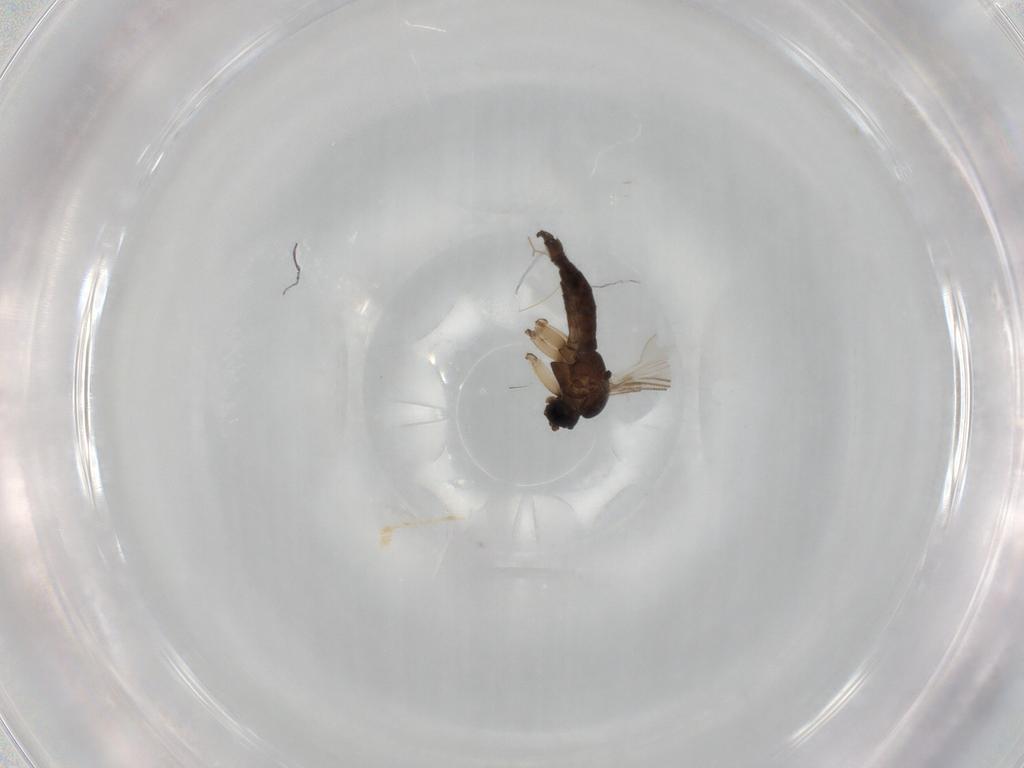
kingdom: Animalia
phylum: Arthropoda
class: Insecta
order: Diptera
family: Sciaridae
